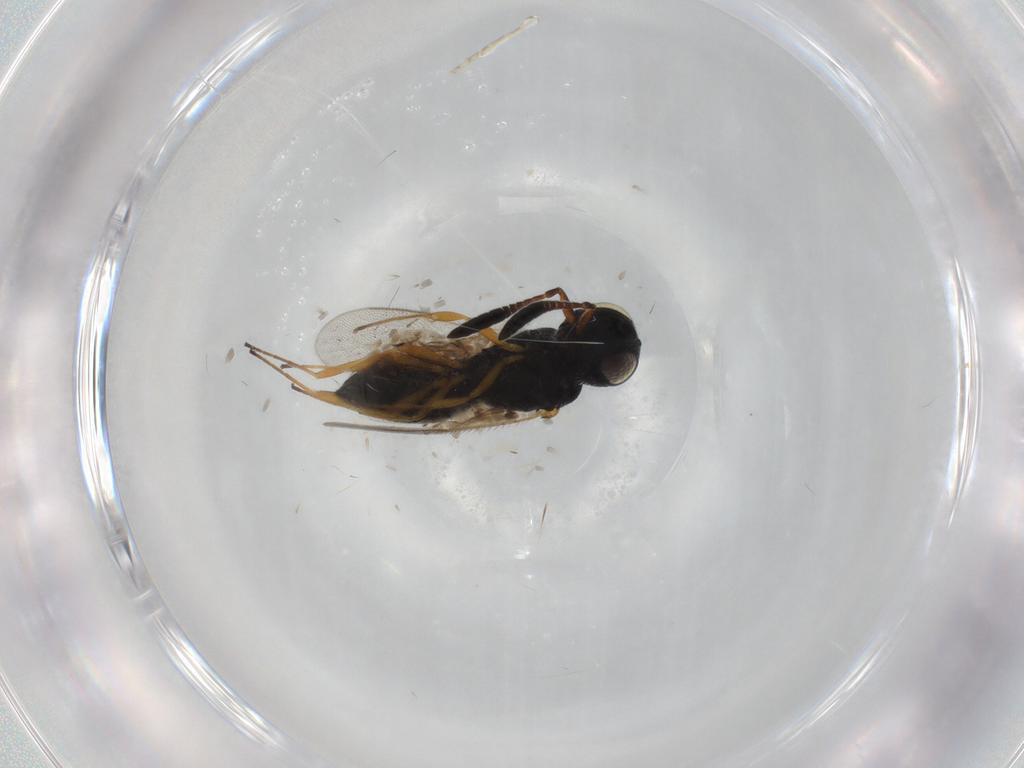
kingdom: Animalia
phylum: Arthropoda
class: Insecta
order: Hymenoptera
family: Scelionidae
